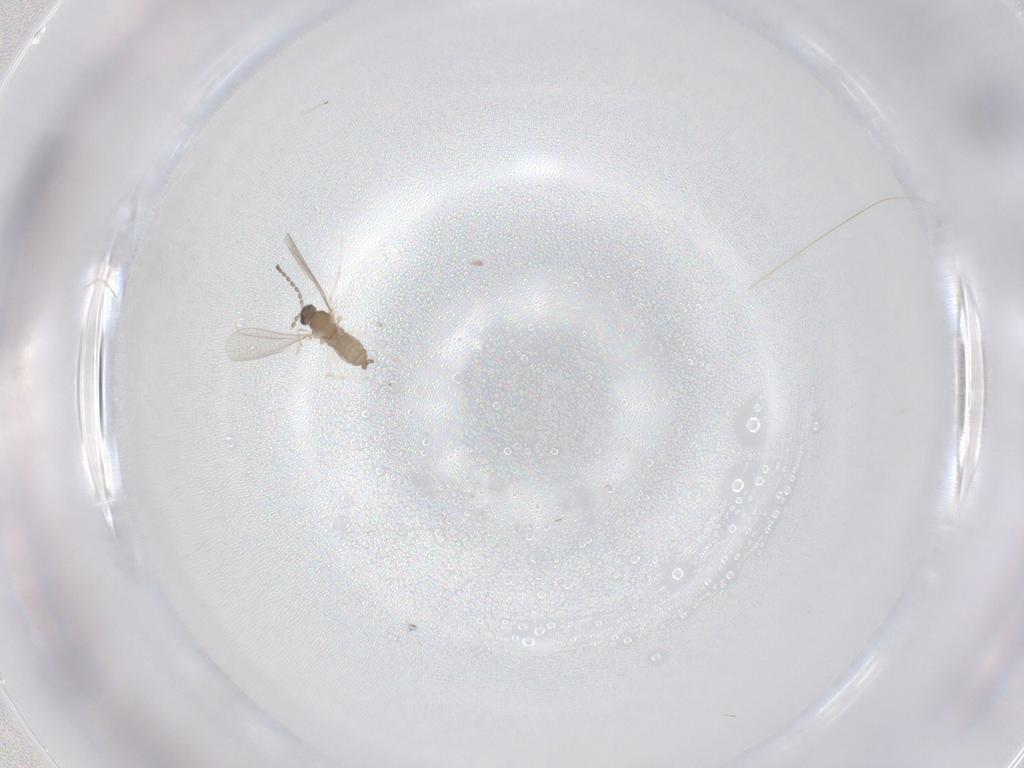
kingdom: Animalia
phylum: Arthropoda
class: Insecta
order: Diptera
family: Cecidomyiidae
